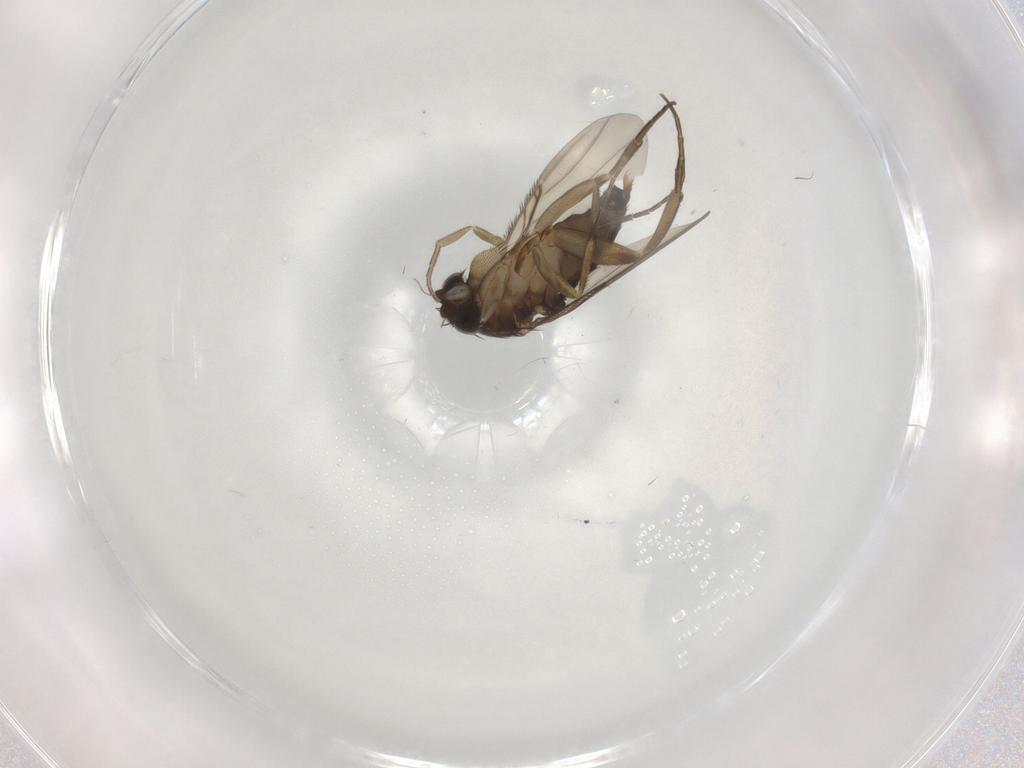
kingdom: Animalia
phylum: Arthropoda
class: Insecta
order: Diptera
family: Phoridae
